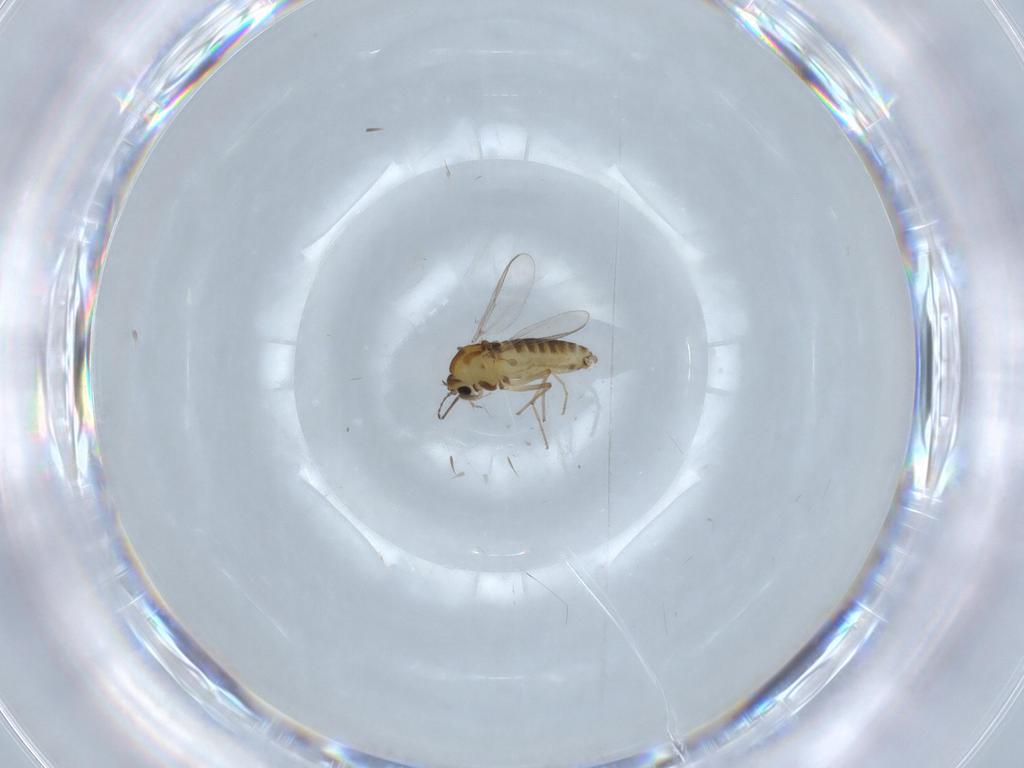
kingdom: Animalia
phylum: Arthropoda
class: Insecta
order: Diptera
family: Chironomidae
